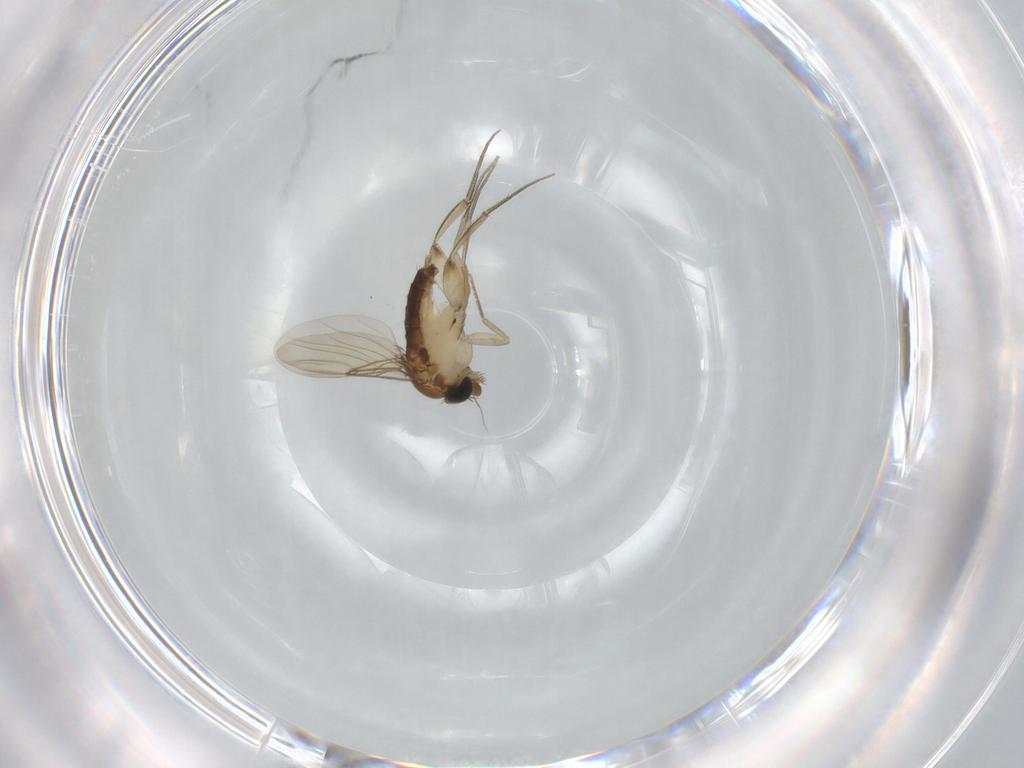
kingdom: Animalia
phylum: Arthropoda
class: Insecta
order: Diptera
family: Phoridae
